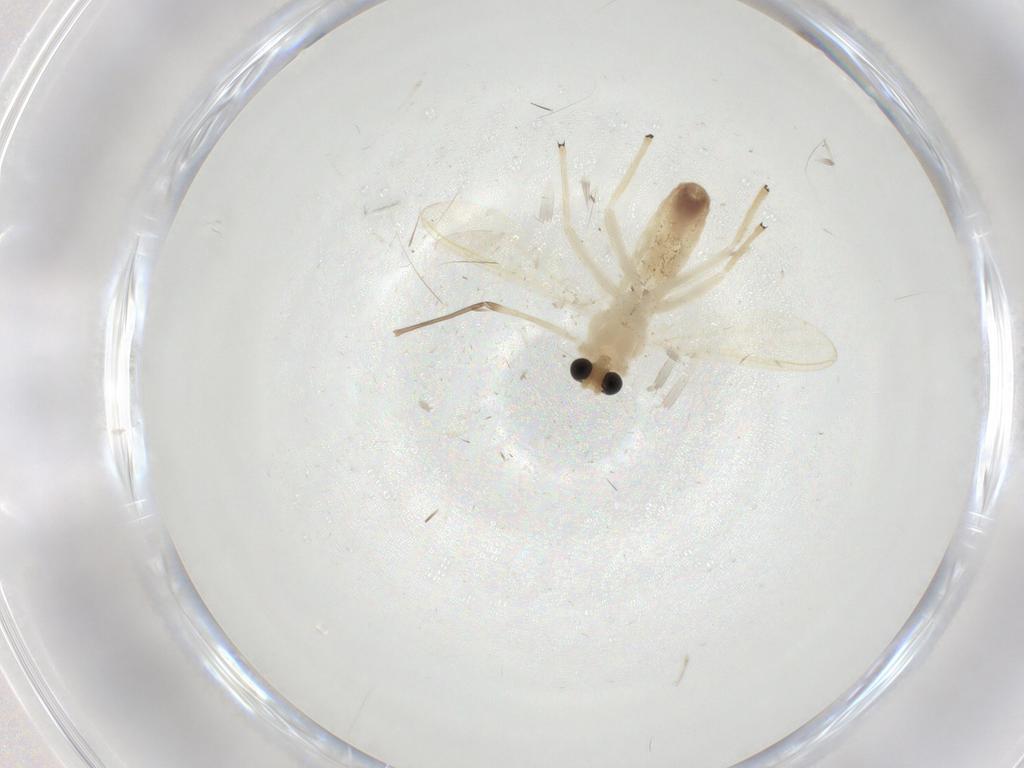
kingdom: Animalia
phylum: Arthropoda
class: Insecta
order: Diptera
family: Chironomidae
